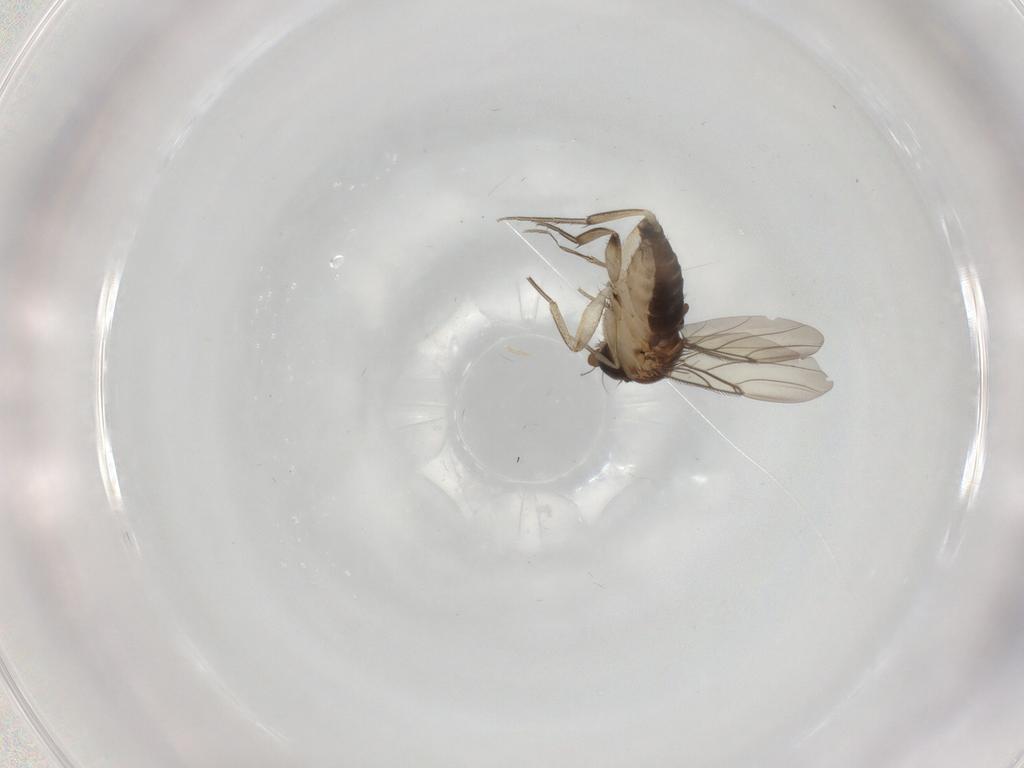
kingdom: Animalia
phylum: Arthropoda
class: Insecta
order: Diptera
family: Phoridae
